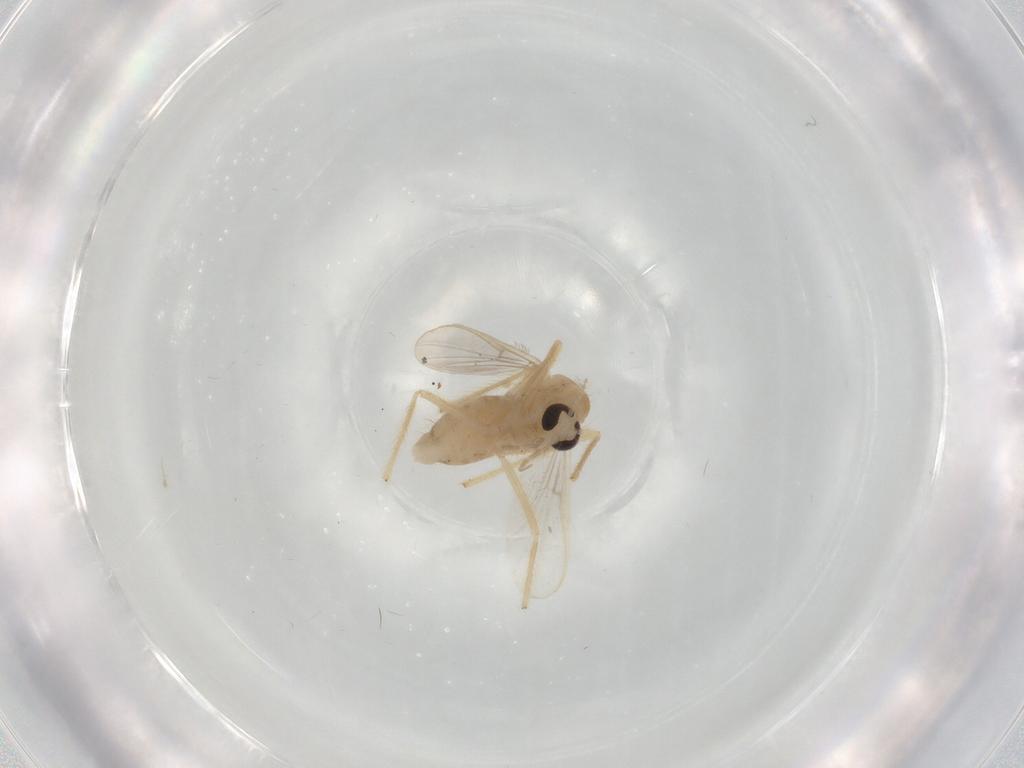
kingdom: Animalia
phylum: Arthropoda
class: Insecta
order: Diptera
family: Chironomidae
